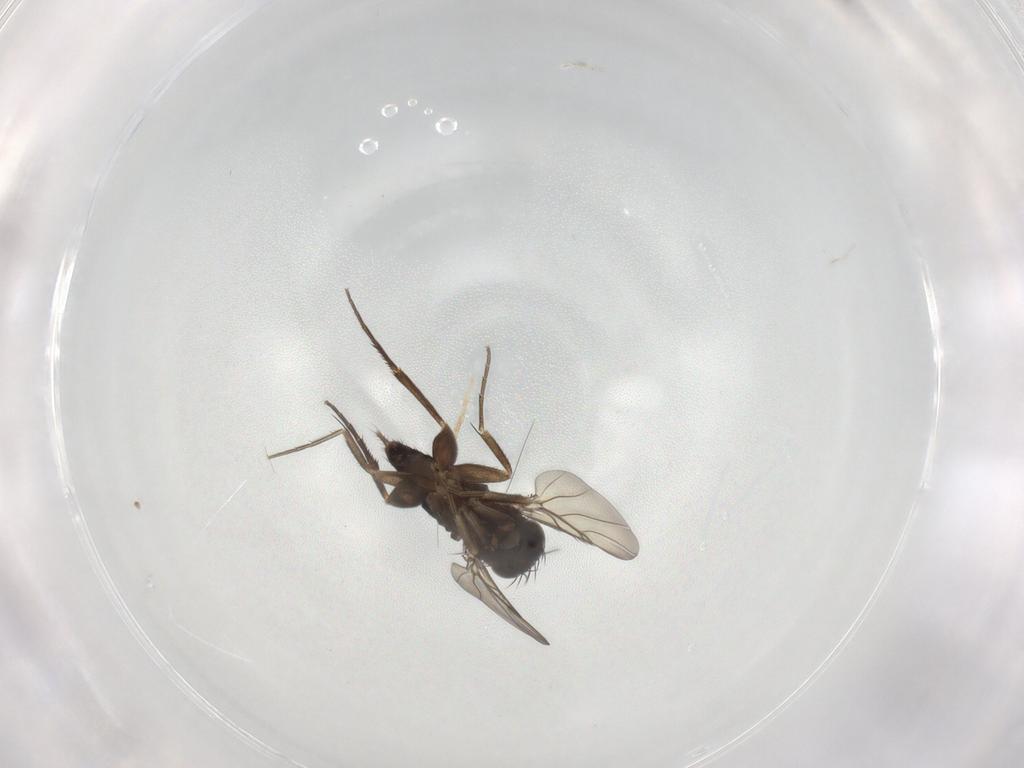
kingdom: Animalia
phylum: Arthropoda
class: Insecta
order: Diptera
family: Phoridae
